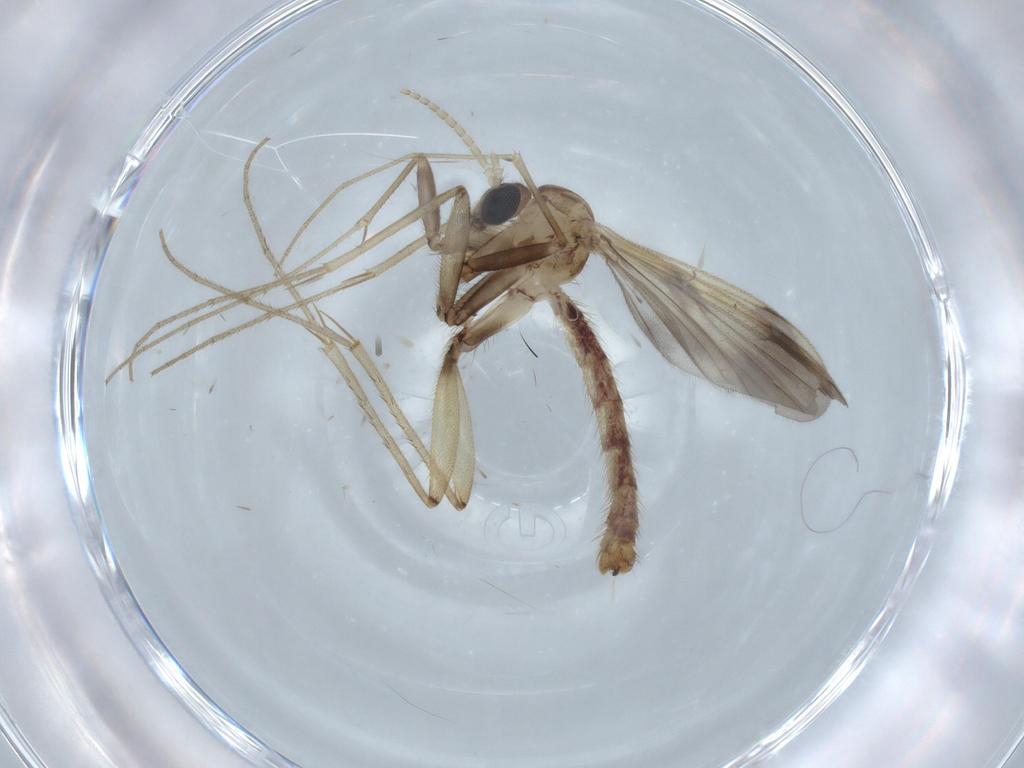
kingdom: Animalia
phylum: Arthropoda
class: Insecta
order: Diptera
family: Mycetophilidae
